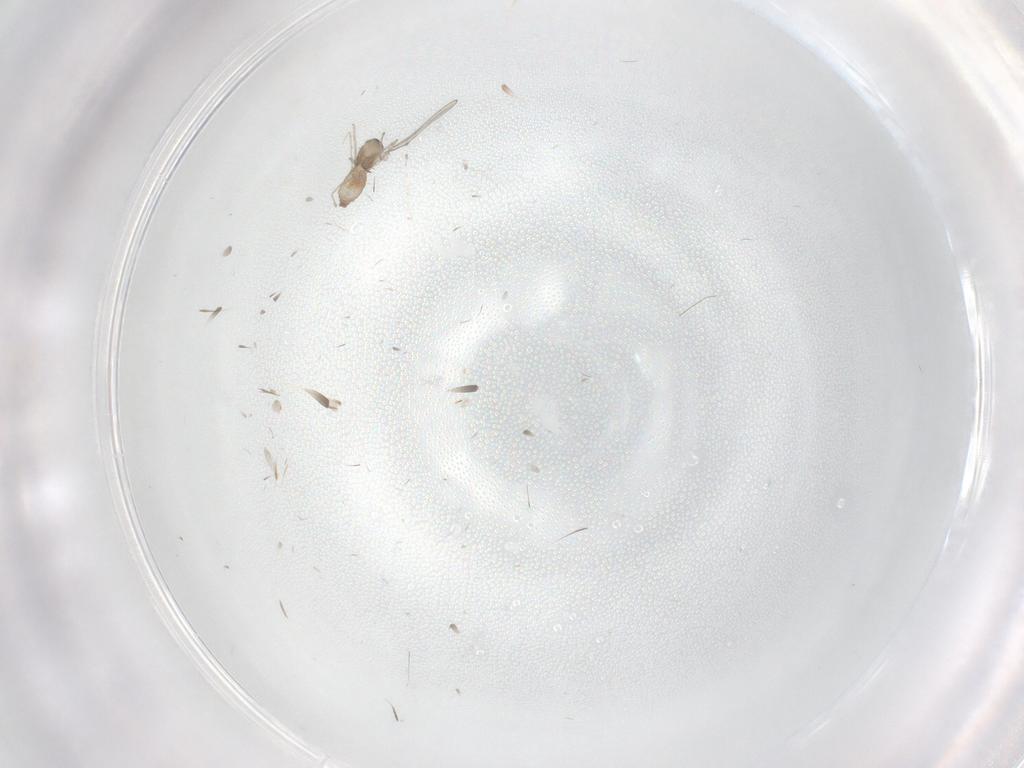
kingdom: Animalia
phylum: Arthropoda
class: Insecta
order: Diptera
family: Cecidomyiidae
